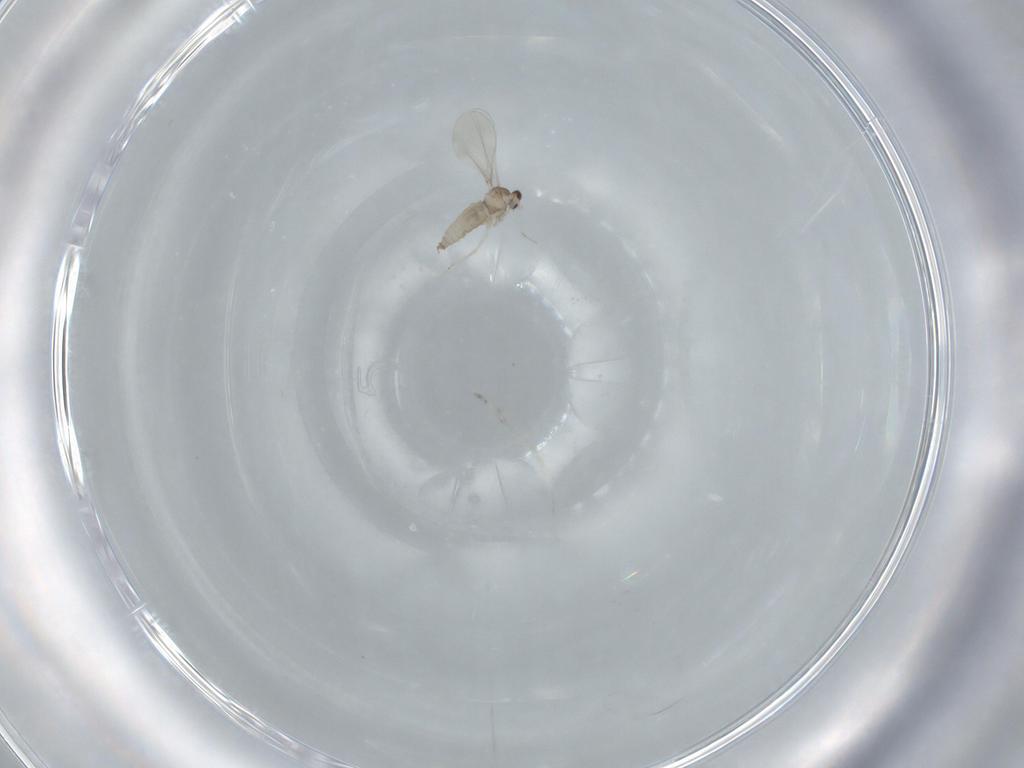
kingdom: Animalia
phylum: Arthropoda
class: Insecta
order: Diptera
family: Cecidomyiidae
